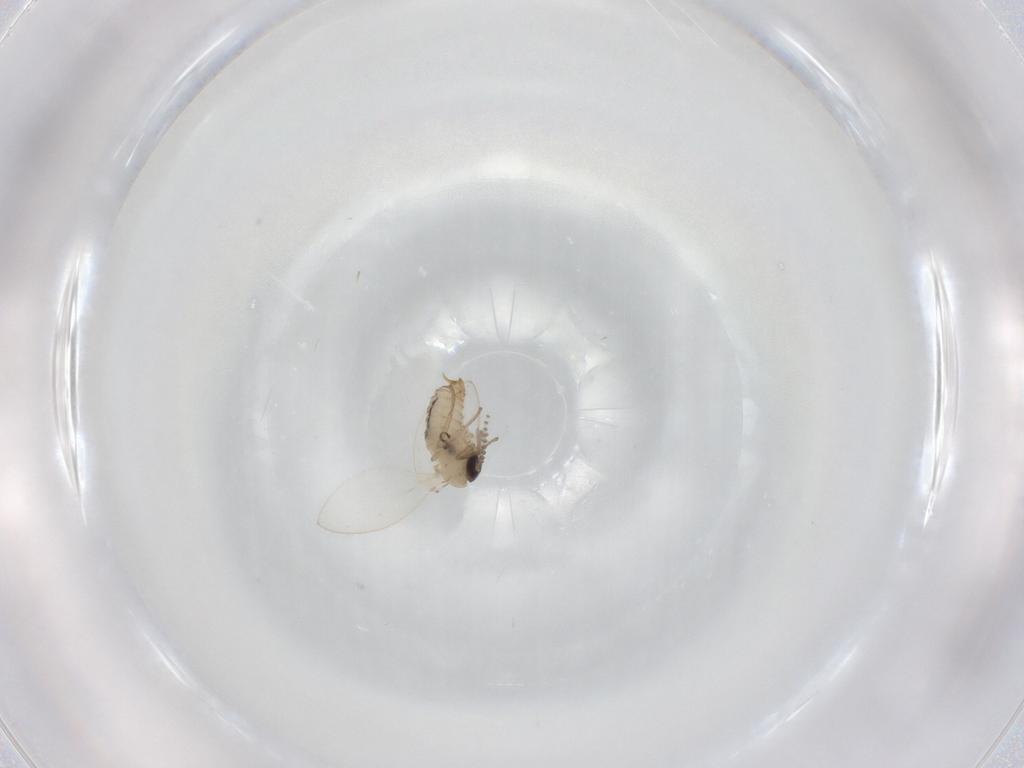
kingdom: Animalia
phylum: Arthropoda
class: Insecta
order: Diptera
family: Psychodidae
